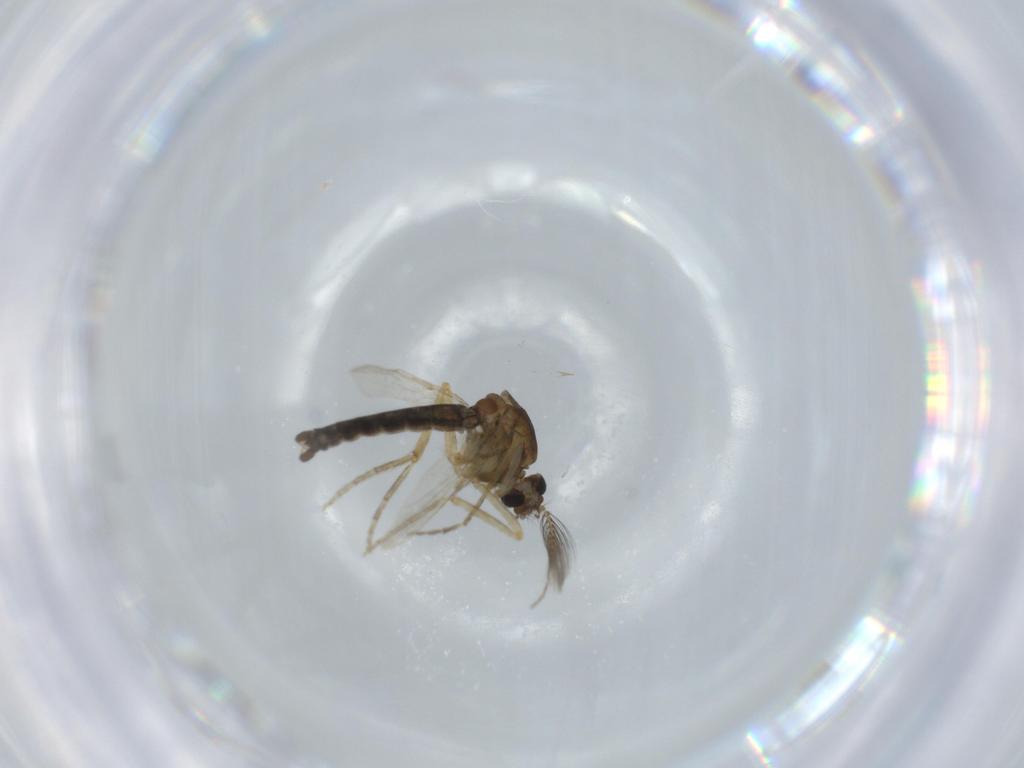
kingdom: Animalia
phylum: Arthropoda
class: Insecta
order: Diptera
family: Ceratopogonidae
